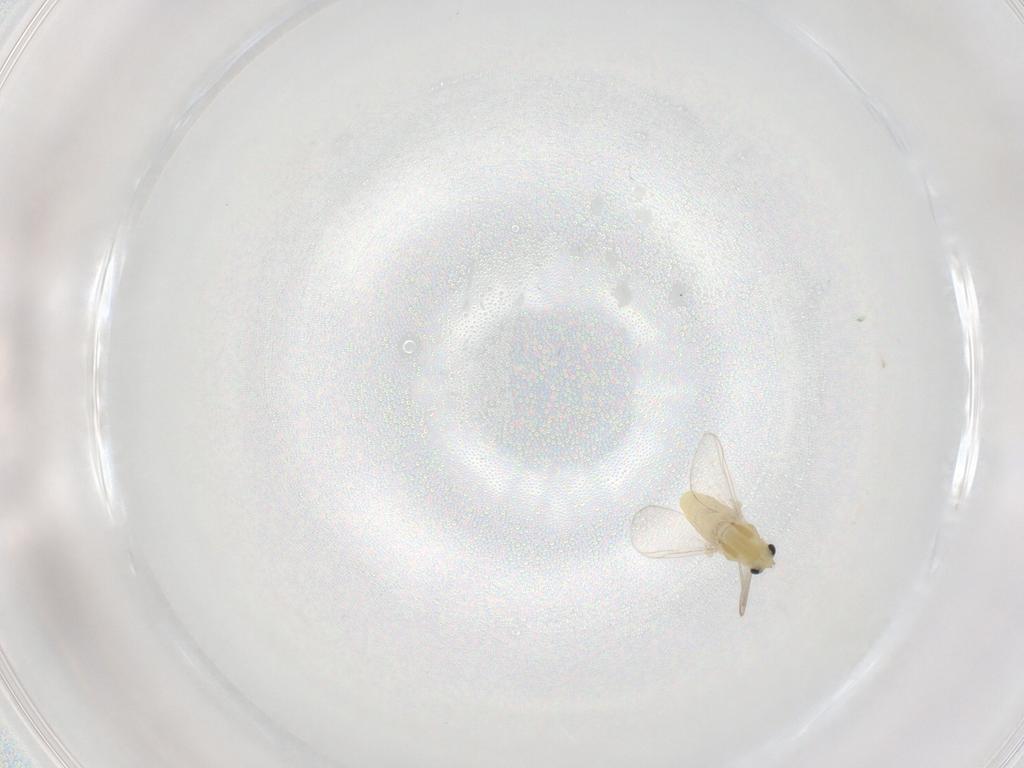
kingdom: Animalia
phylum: Arthropoda
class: Insecta
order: Diptera
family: Chironomidae
